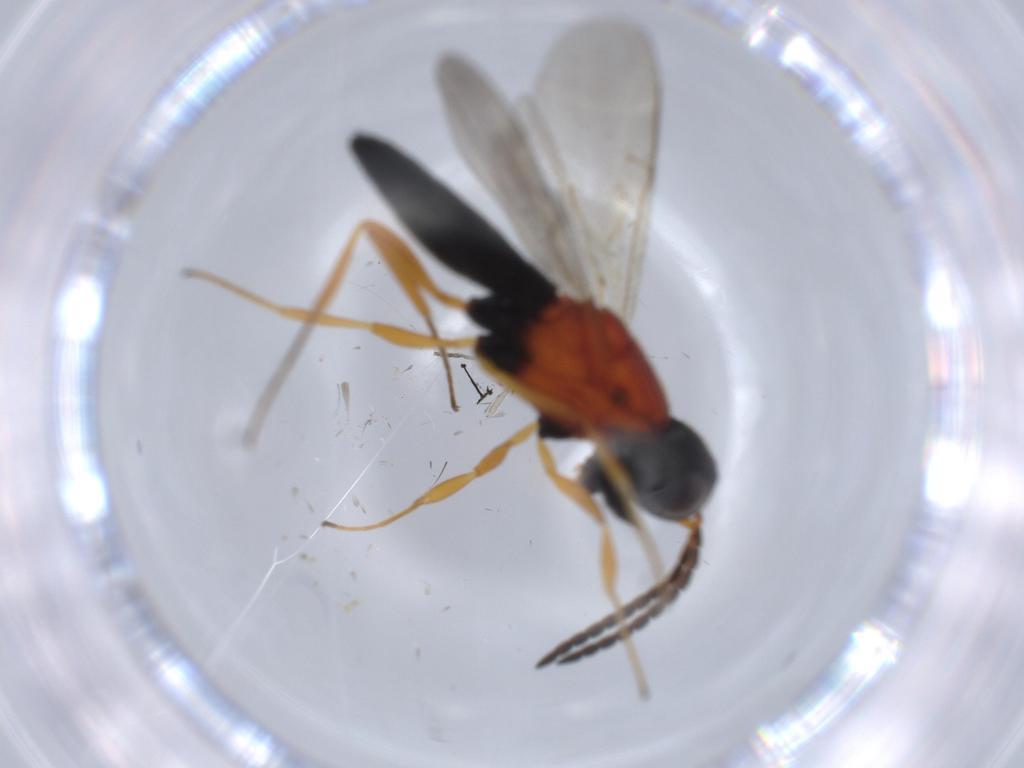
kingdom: Animalia
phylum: Arthropoda
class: Insecta
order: Hymenoptera
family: Scelionidae
